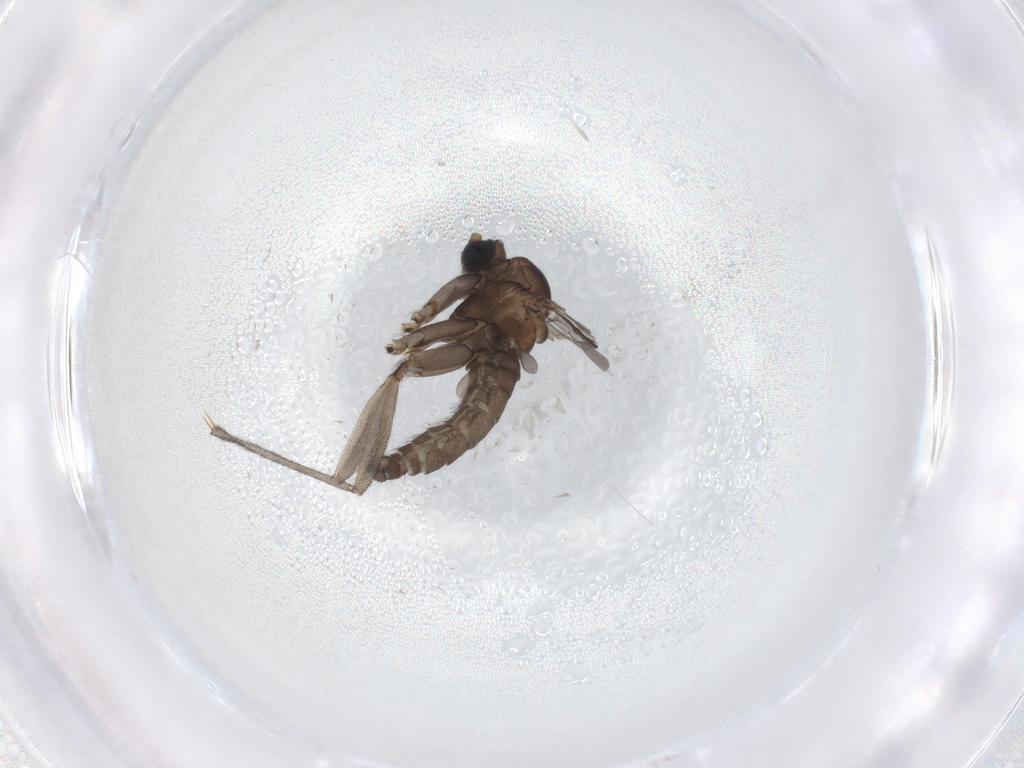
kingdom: Animalia
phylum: Arthropoda
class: Insecta
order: Diptera
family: Sciaridae
